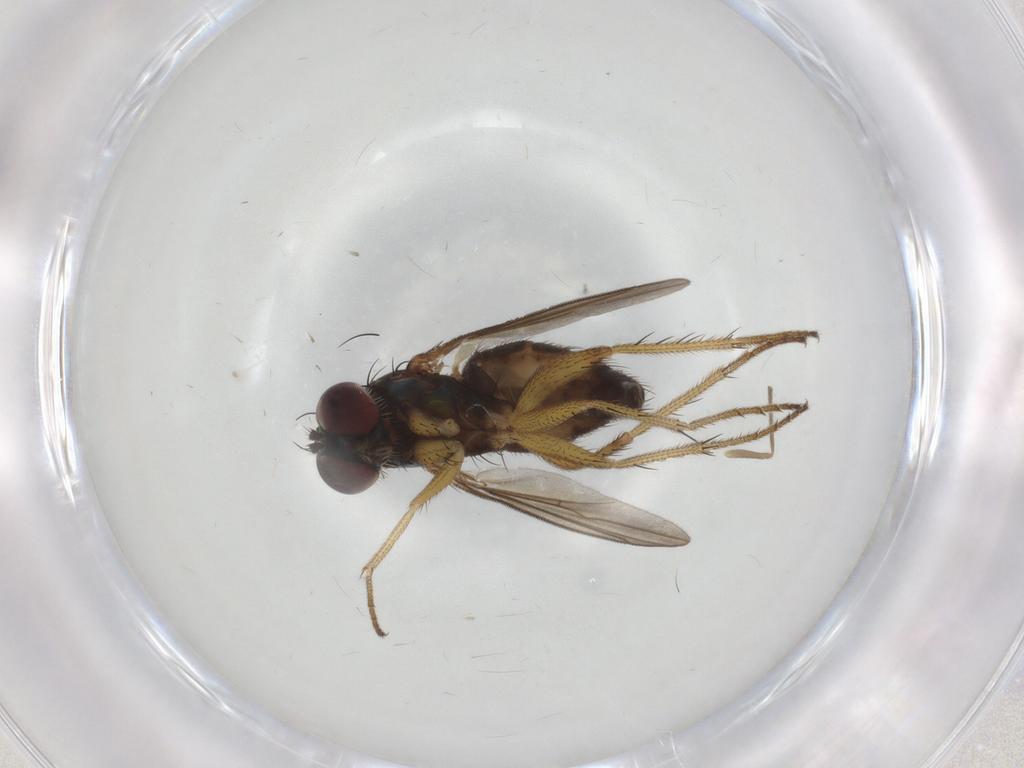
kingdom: Animalia
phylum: Arthropoda
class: Insecta
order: Diptera
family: Dolichopodidae
